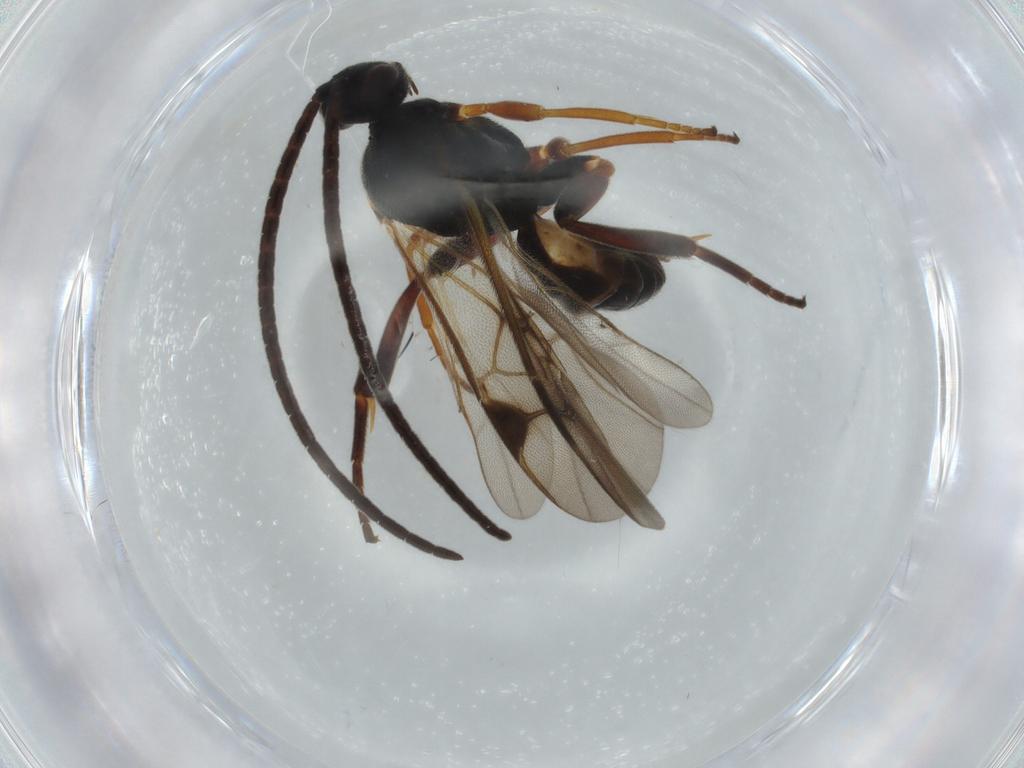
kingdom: Animalia
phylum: Arthropoda
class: Insecta
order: Hymenoptera
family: Braconidae
